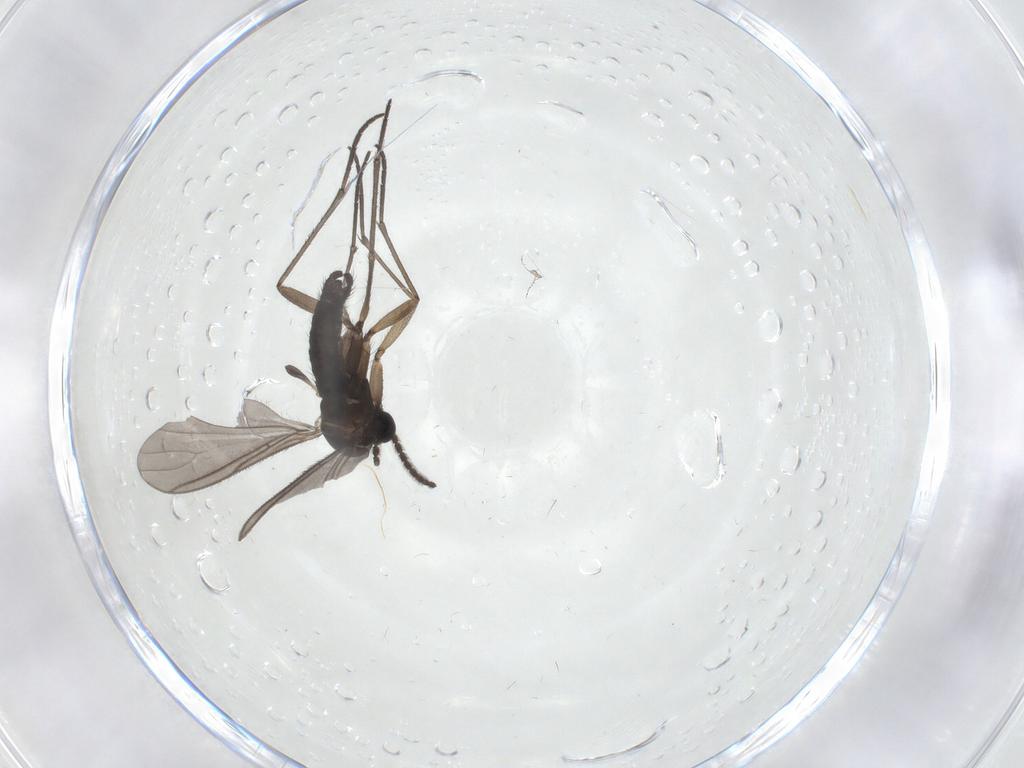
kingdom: Animalia
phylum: Arthropoda
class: Insecta
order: Diptera
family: Sciaridae
